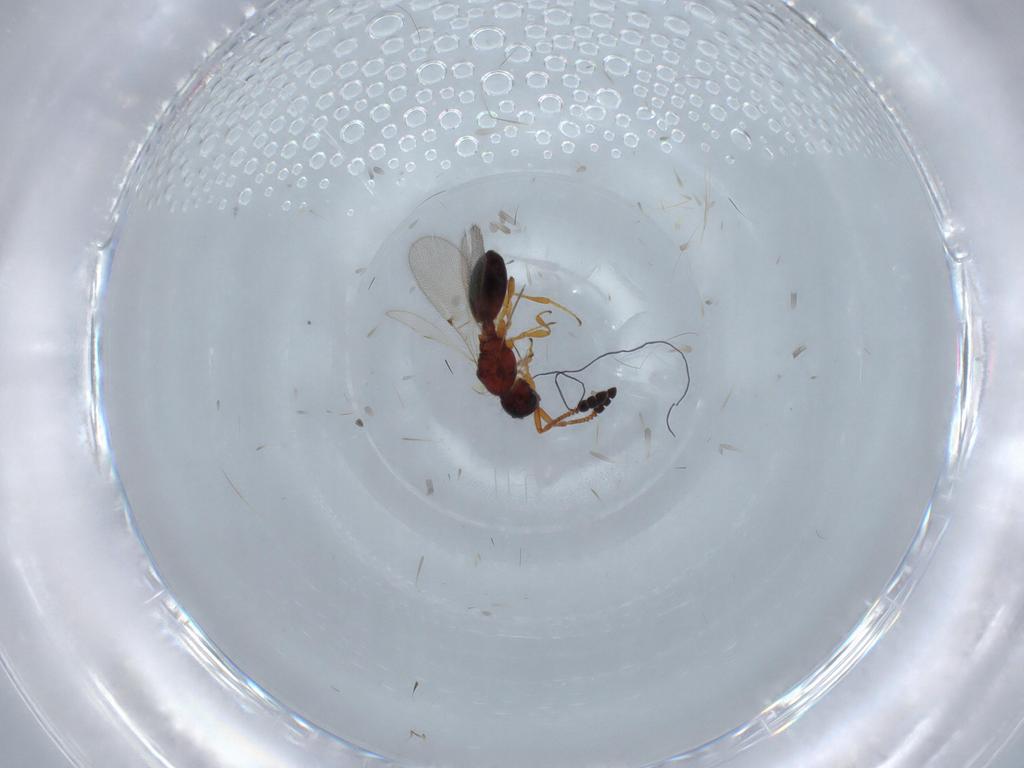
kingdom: Animalia
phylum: Arthropoda
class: Insecta
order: Hymenoptera
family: Diapriidae
